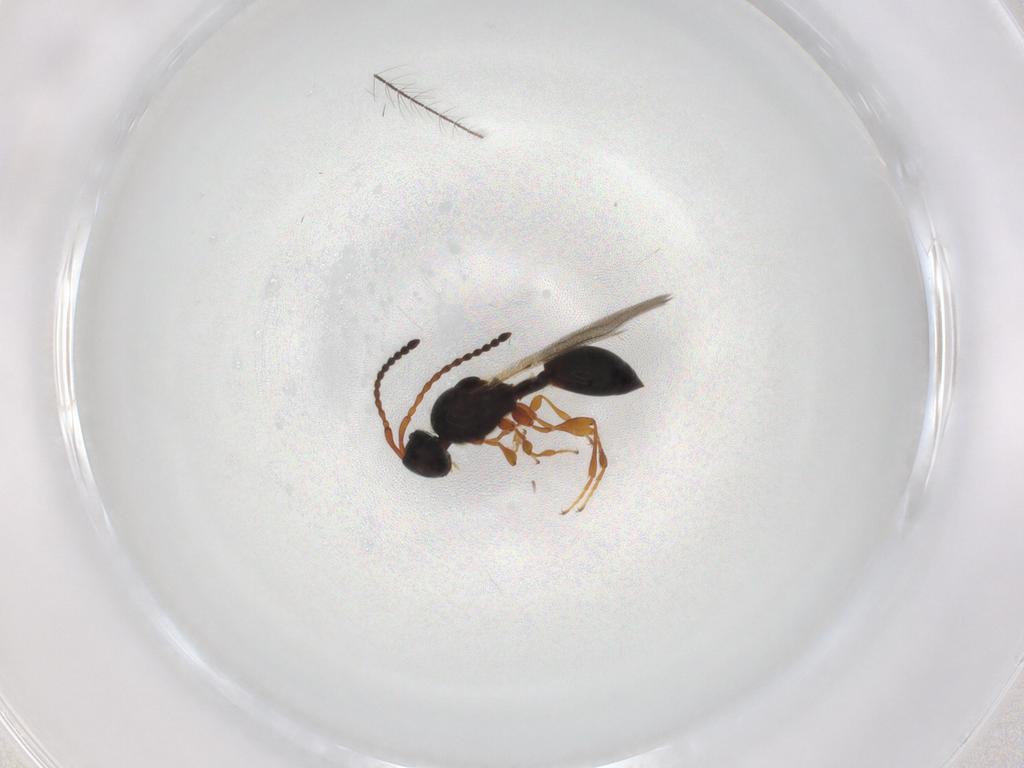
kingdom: Animalia
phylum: Arthropoda
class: Insecta
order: Hymenoptera
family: Diapriidae
